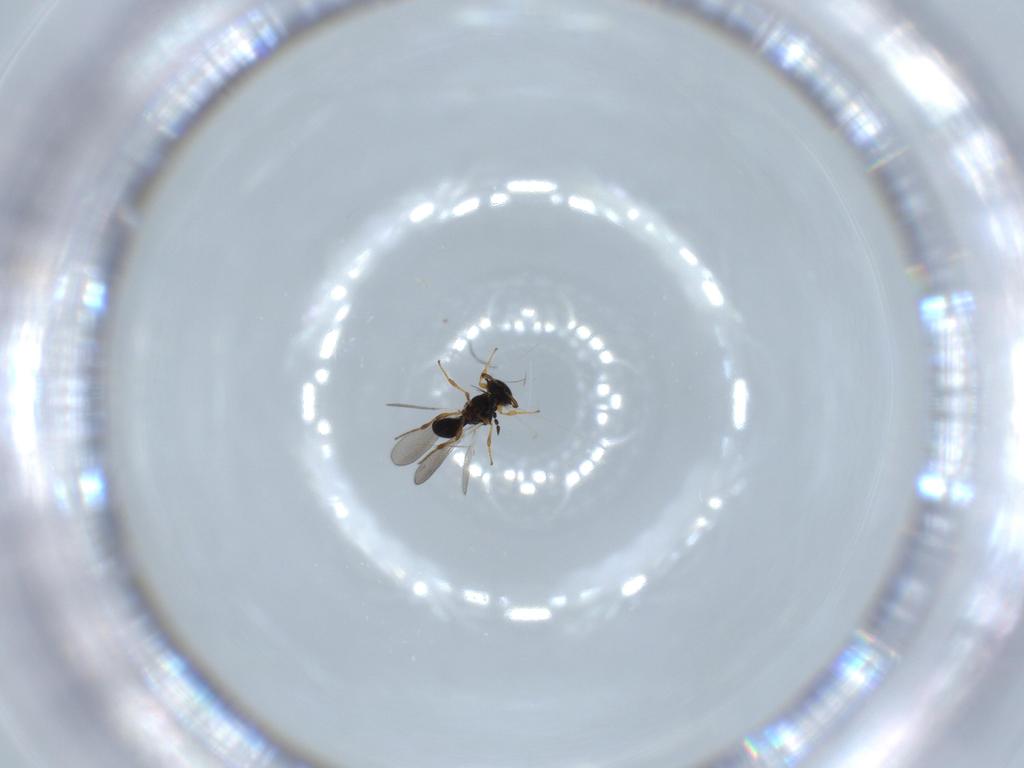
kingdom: Animalia
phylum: Arthropoda
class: Insecta
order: Hymenoptera
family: Platygastridae
